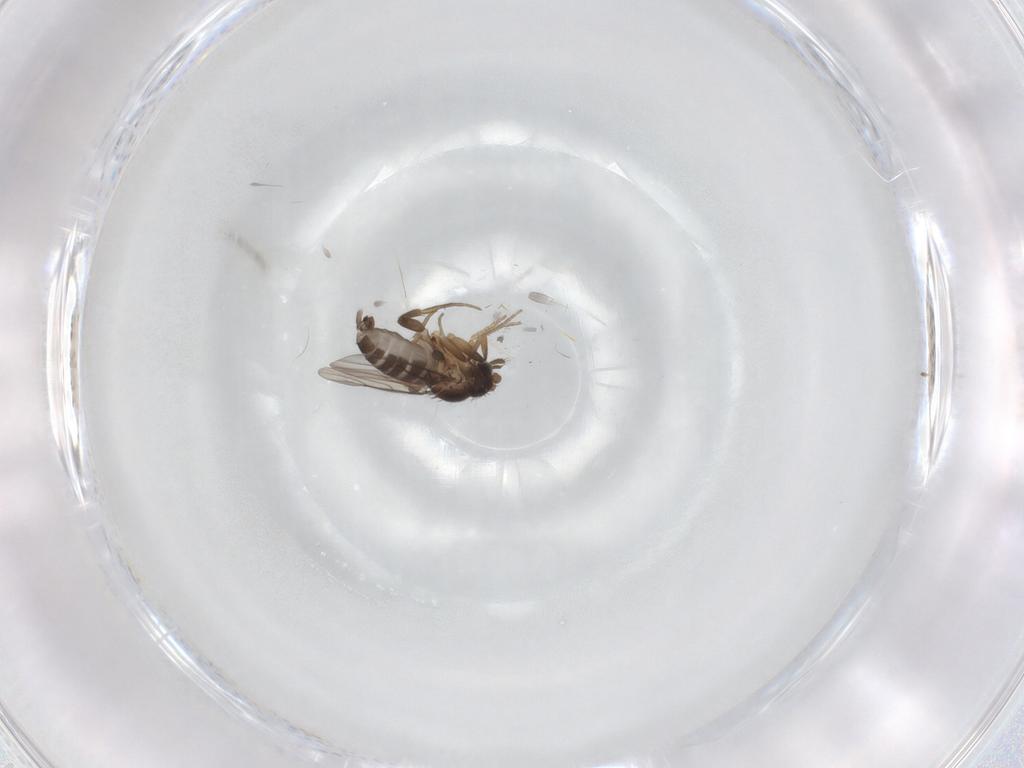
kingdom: Animalia
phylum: Arthropoda
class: Insecta
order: Diptera
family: Phoridae
